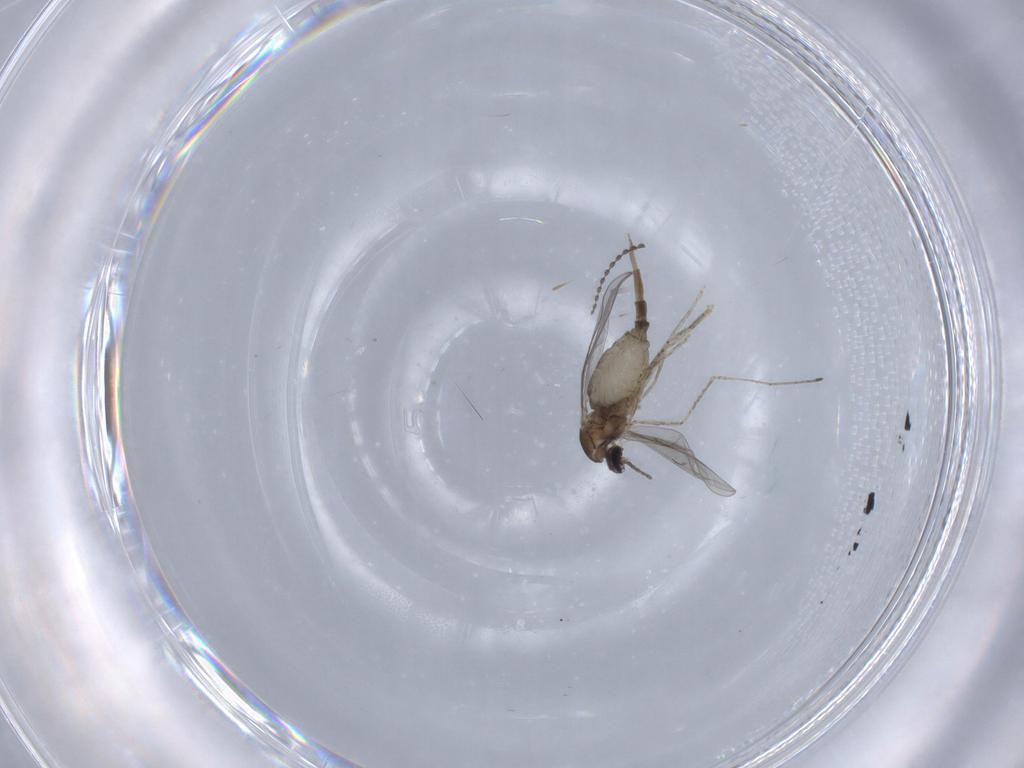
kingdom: Animalia
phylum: Arthropoda
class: Insecta
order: Diptera
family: Cecidomyiidae
